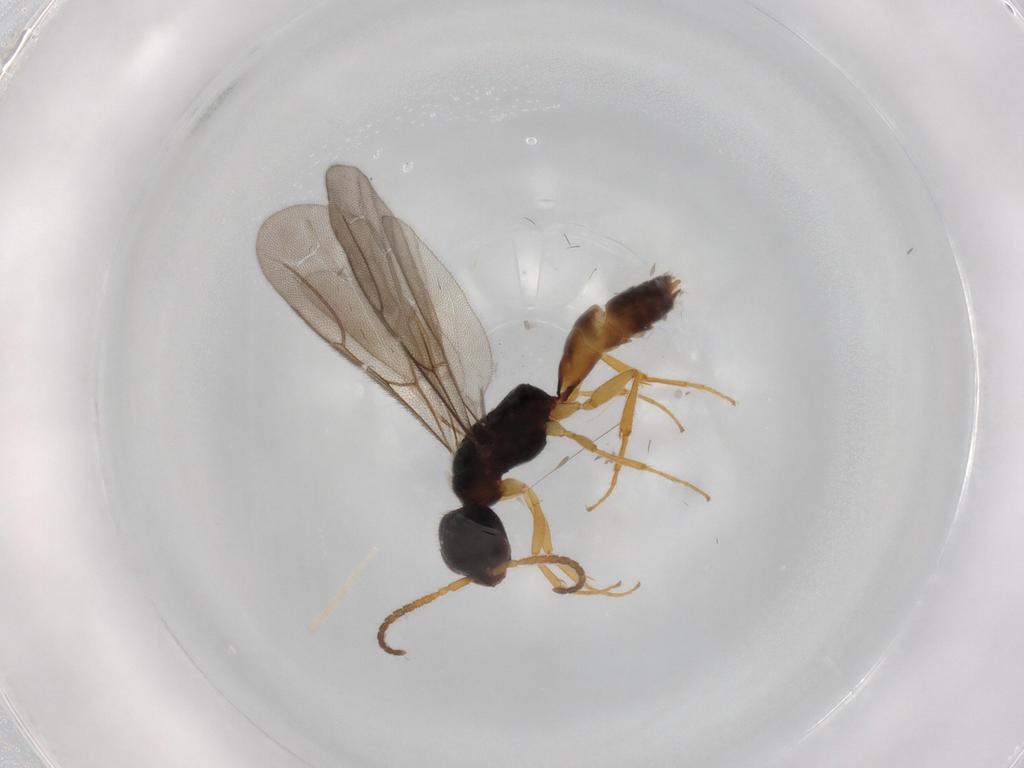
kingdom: Animalia
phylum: Arthropoda
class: Insecta
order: Hymenoptera
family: Bethylidae
